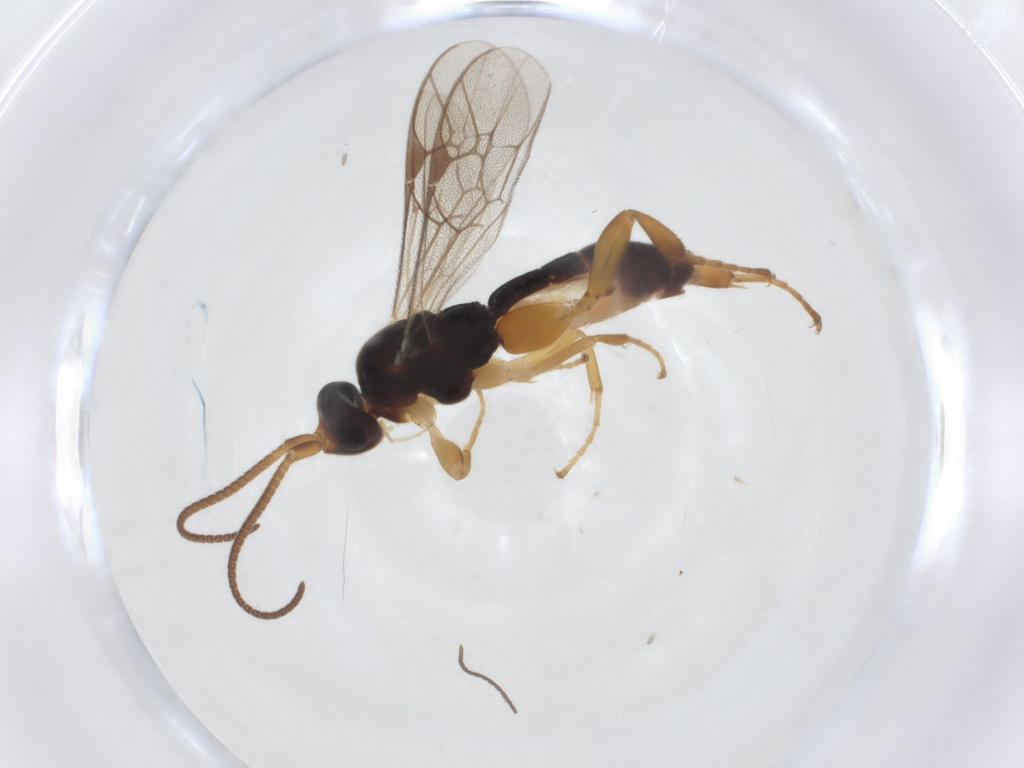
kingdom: Animalia
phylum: Arthropoda
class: Insecta
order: Hymenoptera
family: Ichneumonidae
